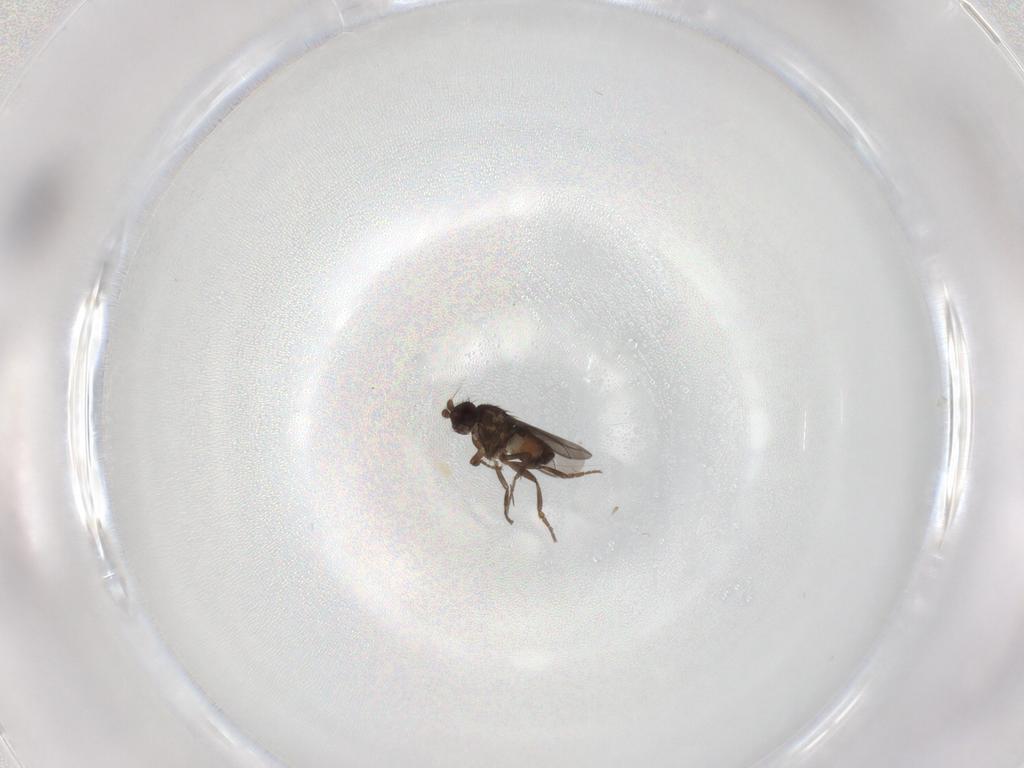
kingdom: Animalia
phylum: Arthropoda
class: Insecta
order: Diptera
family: Sphaeroceridae
